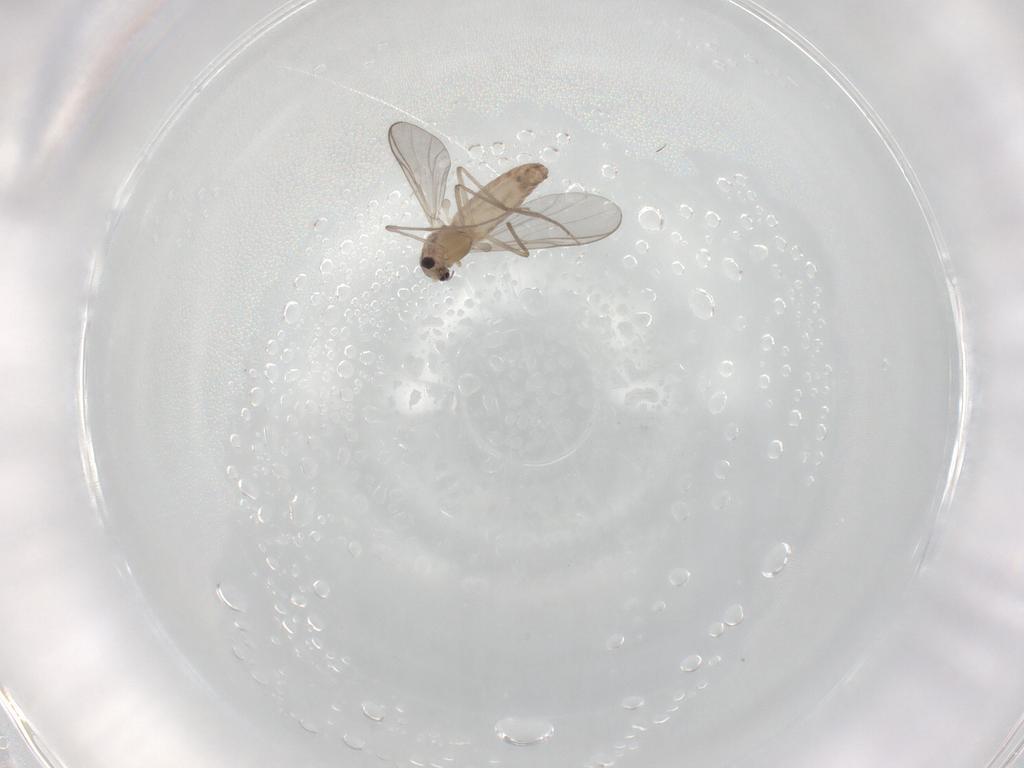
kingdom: Animalia
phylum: Arthropoda
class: Insecta
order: Diptera
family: Chironomidae
